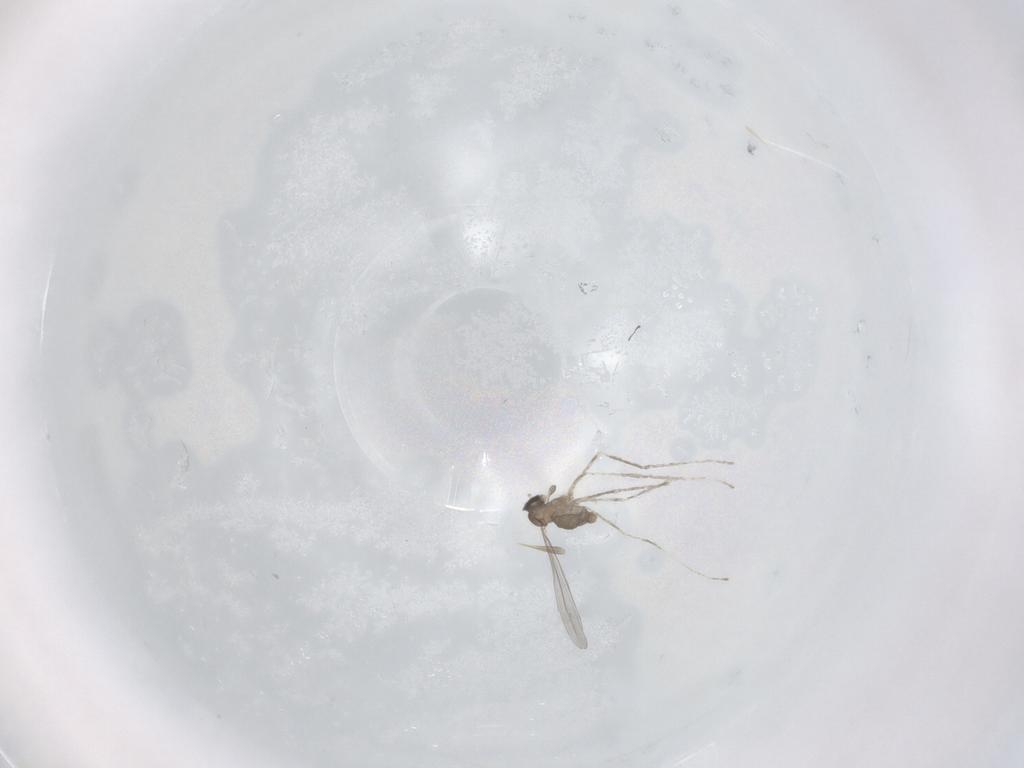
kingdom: Animalia
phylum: Arthropoda
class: Insecta
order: Diptera
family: Cecidomyiidae
